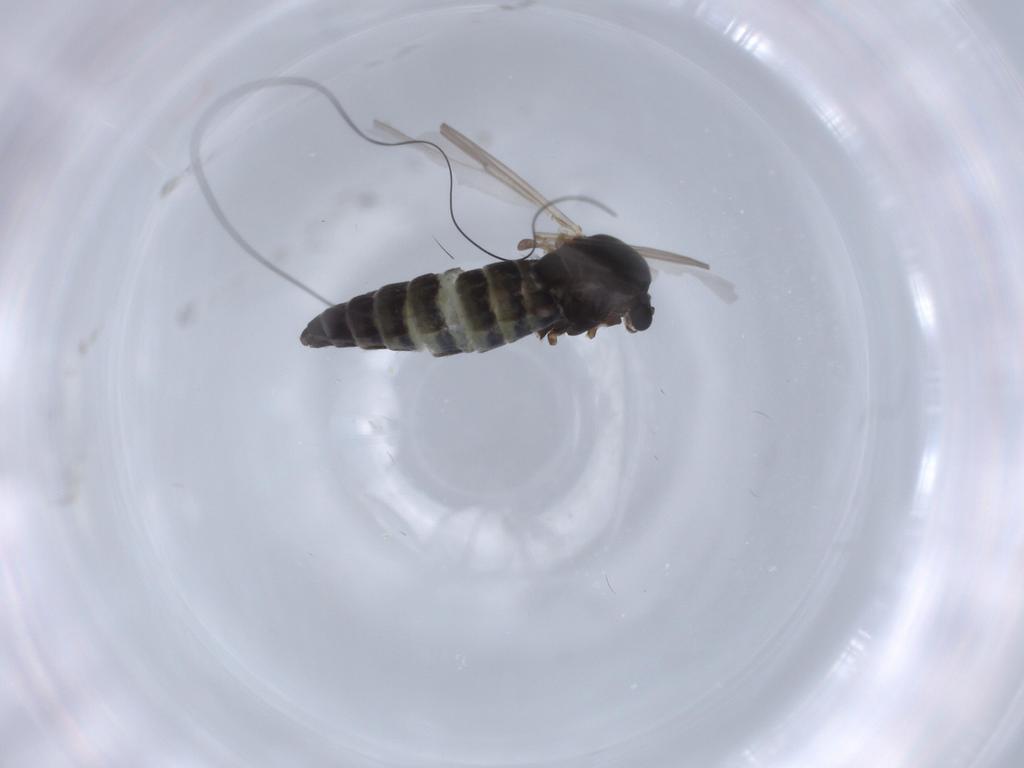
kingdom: Animalia
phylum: Arthropoda
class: Insecta
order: Diptera
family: Chironomidae
